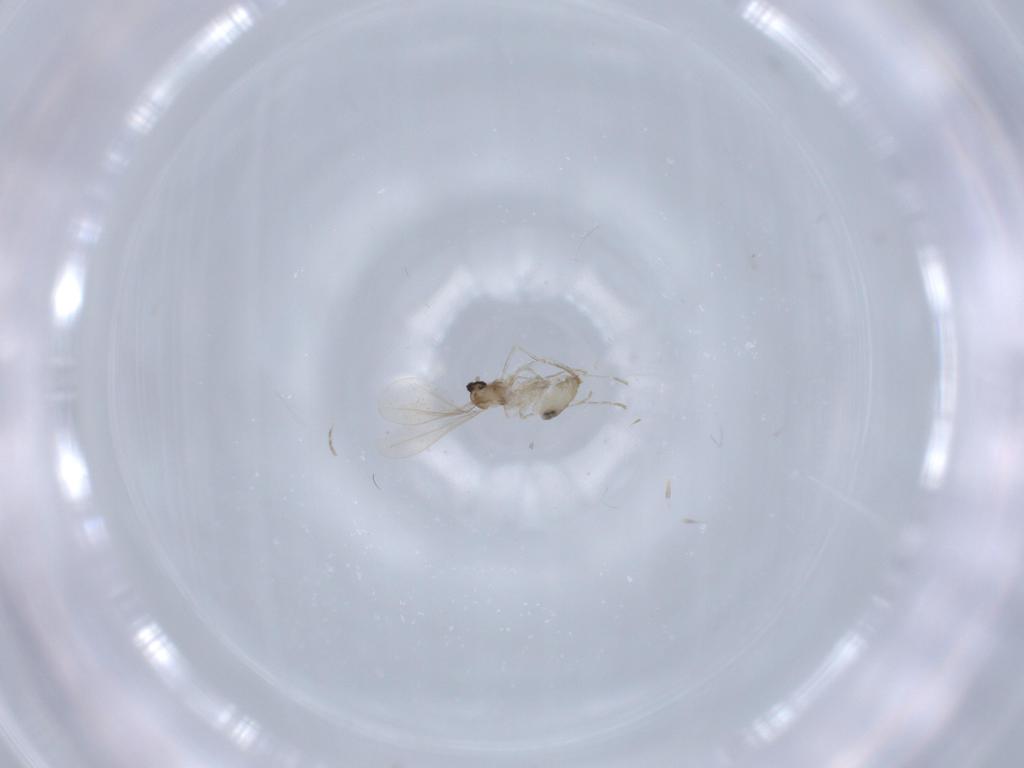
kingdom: Animalia
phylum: Arthropoda
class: Insecta
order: Diptera
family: Cecidomyiidae
